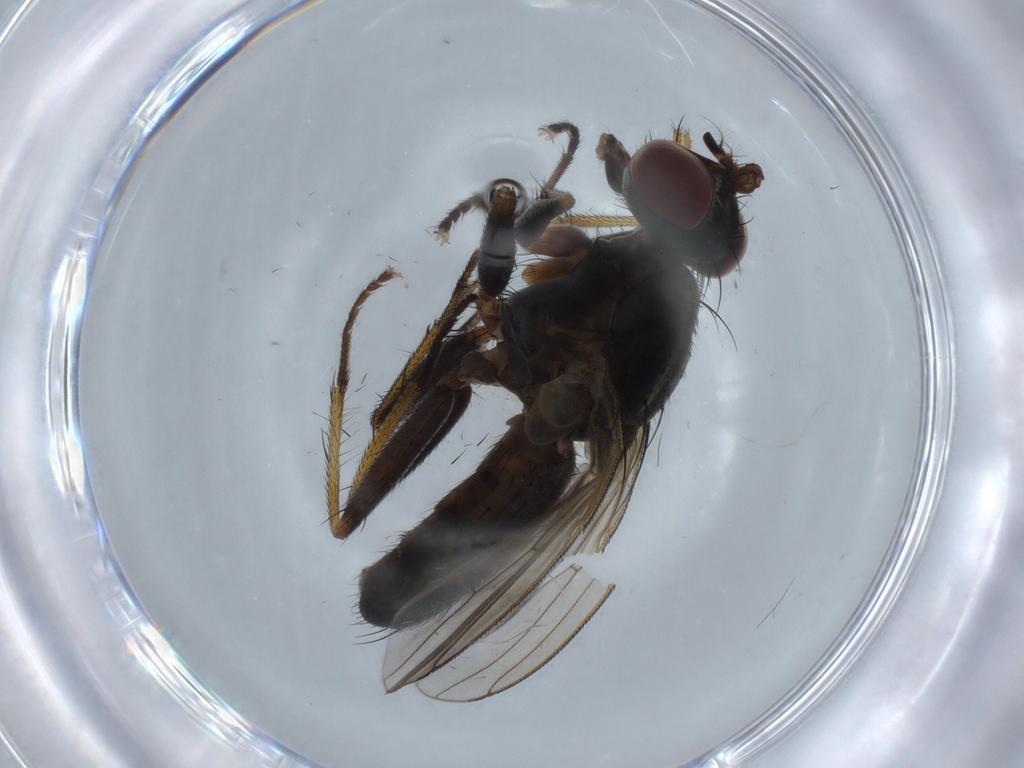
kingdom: Animalia
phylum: Arthropoda
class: Insecta
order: Diptera
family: Muscidae
